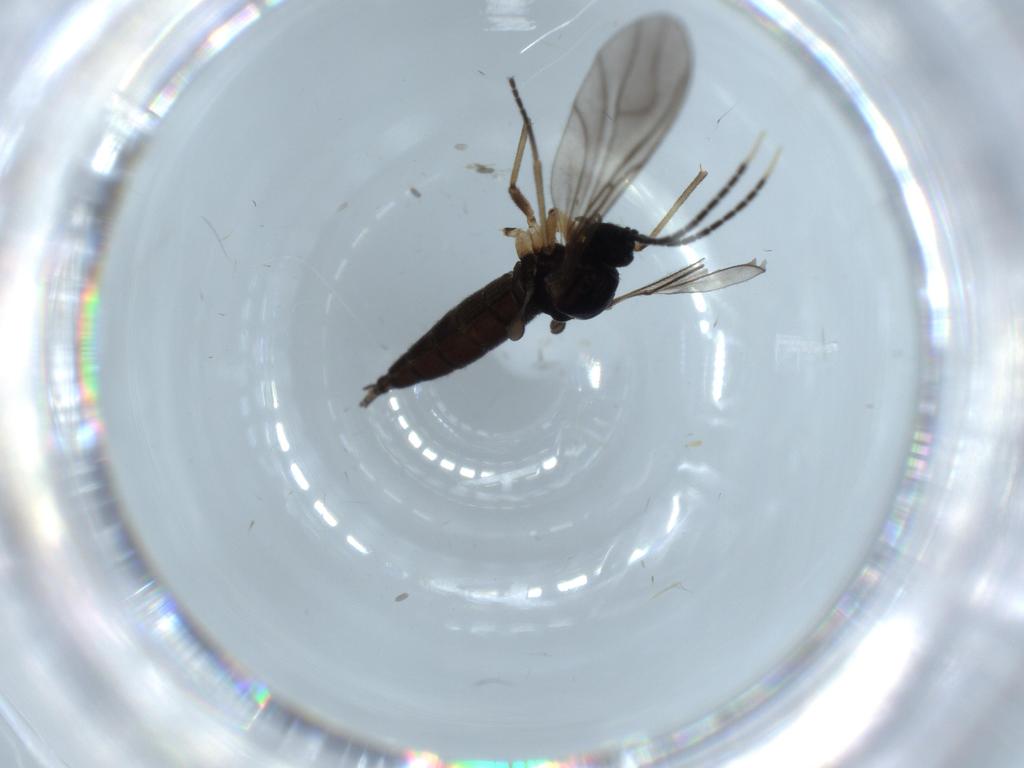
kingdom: Animalia
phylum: Arthropoda
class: Insecta
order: Diptera
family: Sciaridae
